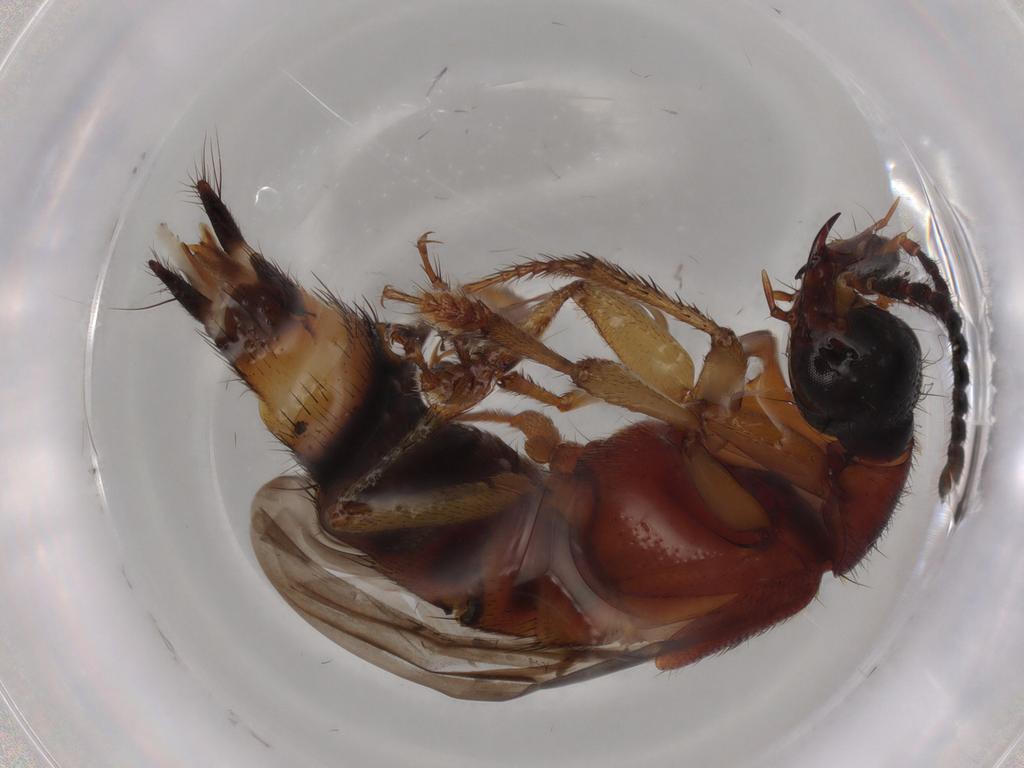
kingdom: Animalia
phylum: Arthropoda
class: Insecta
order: Coleoptera
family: Staphylinidae
